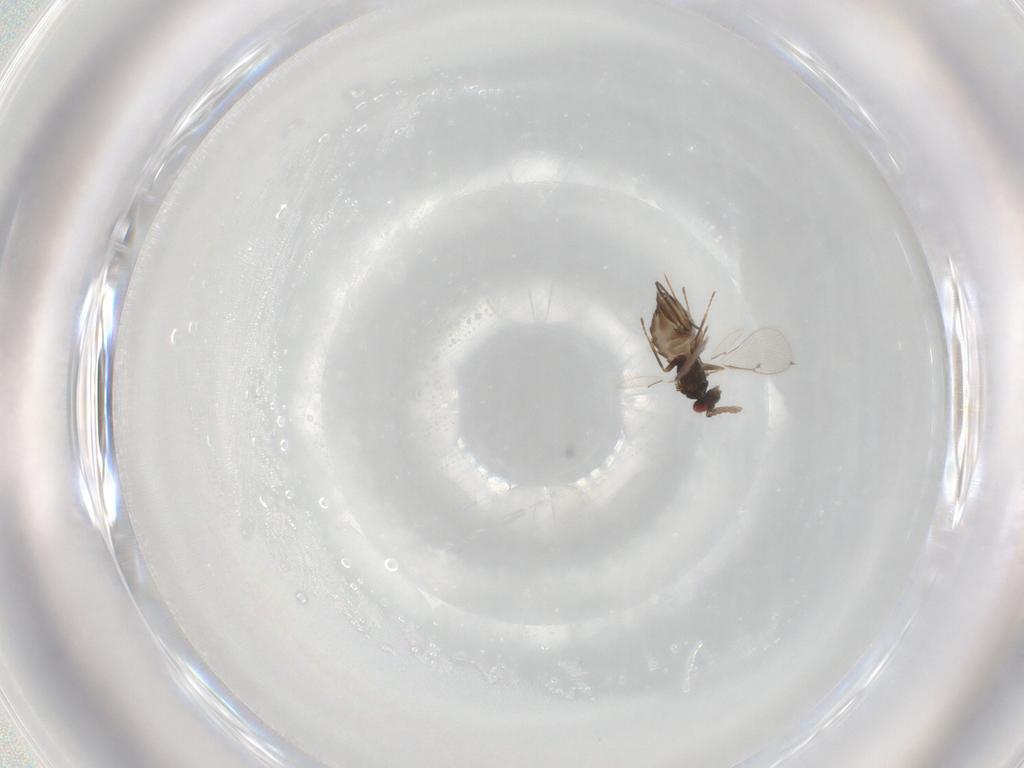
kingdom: Animalia
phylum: Arthropoda
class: Insecta
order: Hymenoptera
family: Eulophidae
